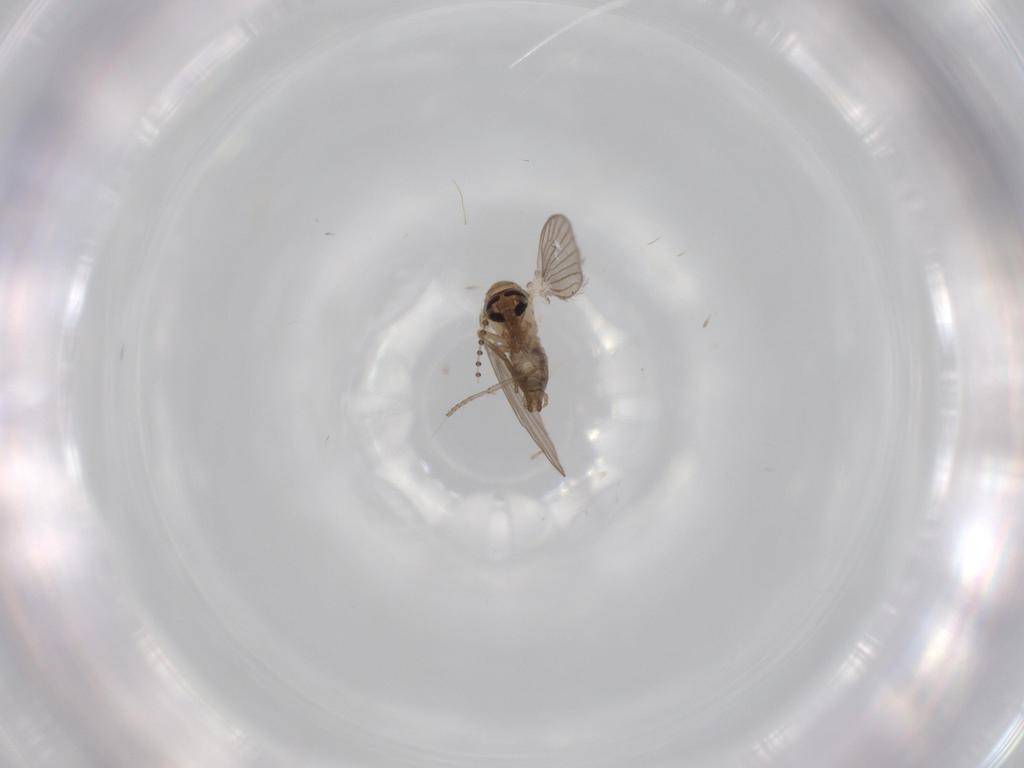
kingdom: Animalia
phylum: Arthropoda
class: Insecta
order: Diptera
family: Psychodidae
